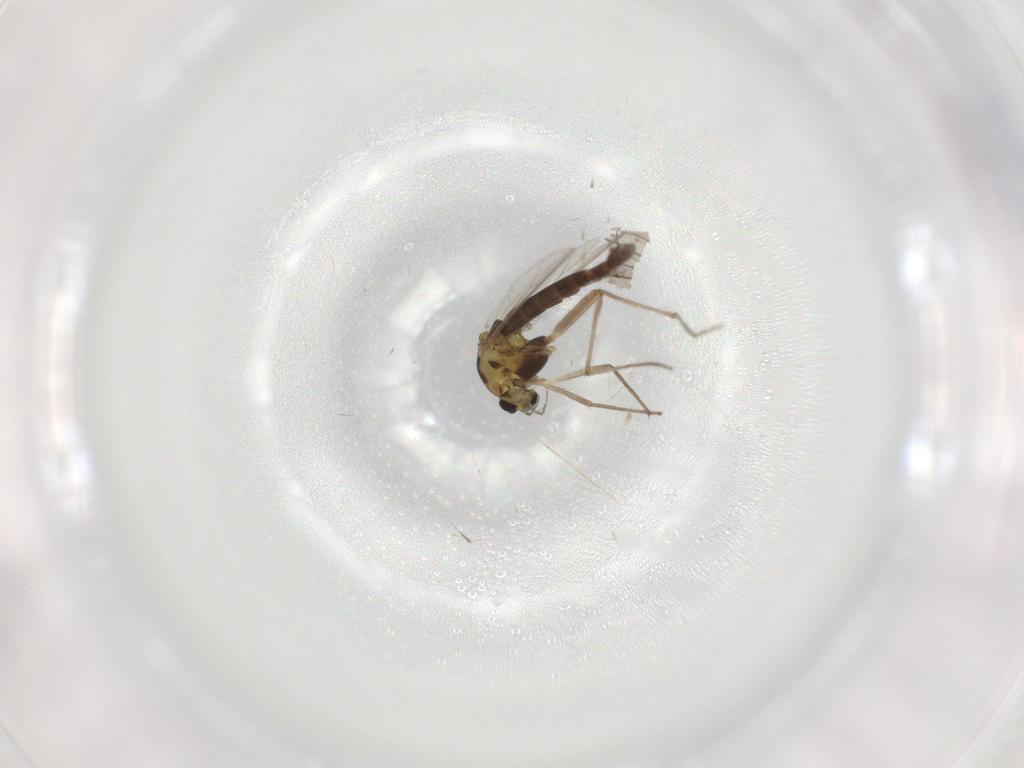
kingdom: Animalia
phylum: Arthropoda
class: Insecta
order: Diptera
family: Chironomidae
